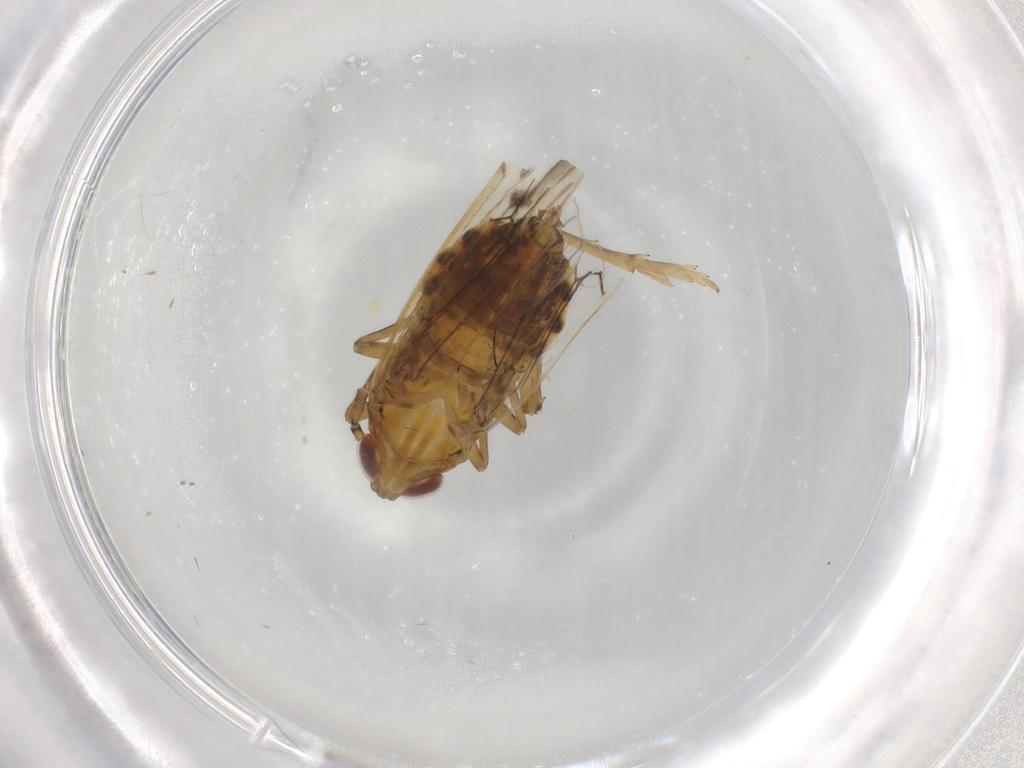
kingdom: Animalia
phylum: Arthropoda
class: Insecta
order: Hemiptera
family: Delphacidae
